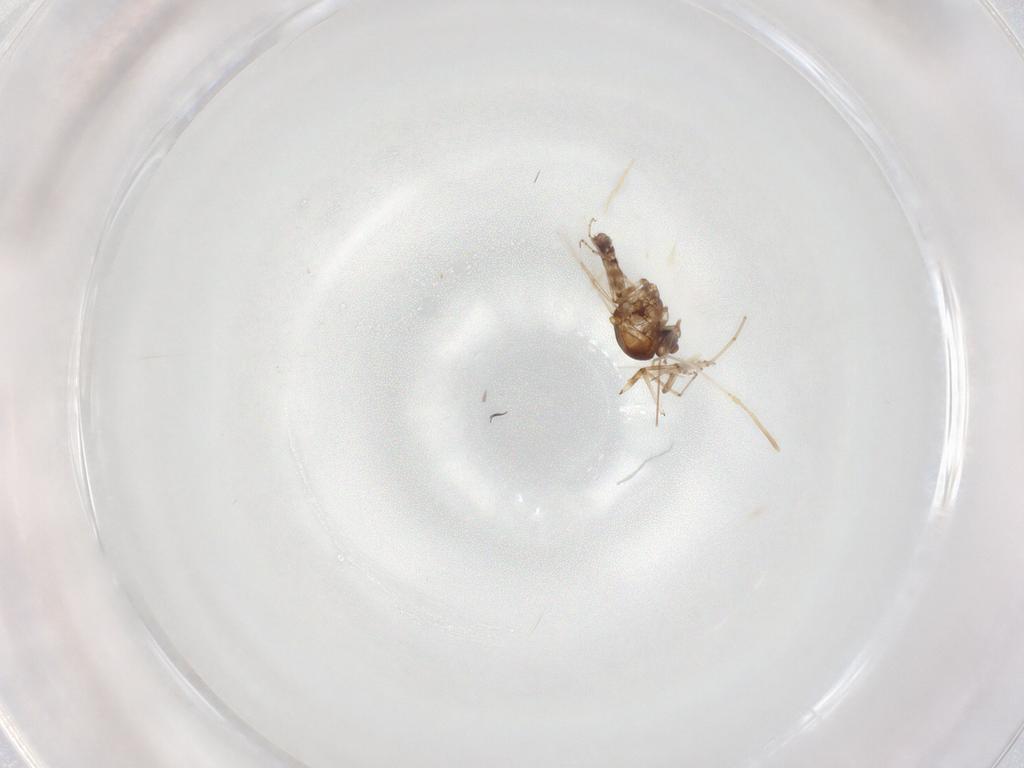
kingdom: Animalia
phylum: Arthropoda
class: Insecta
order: Diptera
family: Ceratopogonidae
